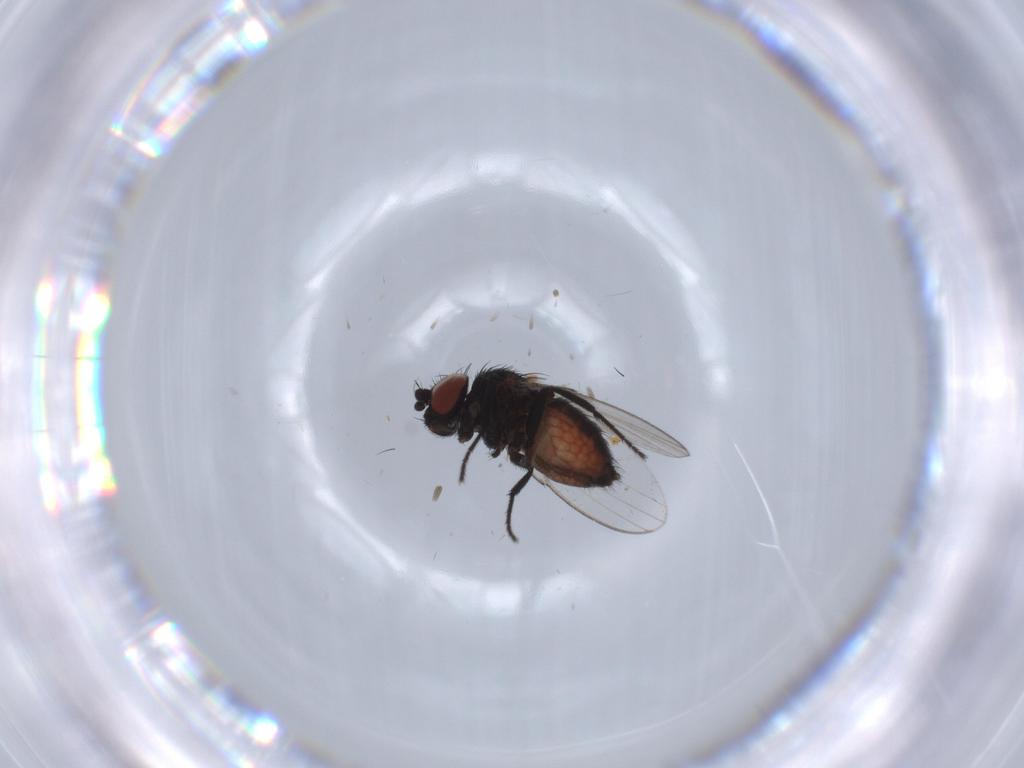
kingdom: Animalia
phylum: Arthropoda
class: Insecta
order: Diptera
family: Milichiidae
